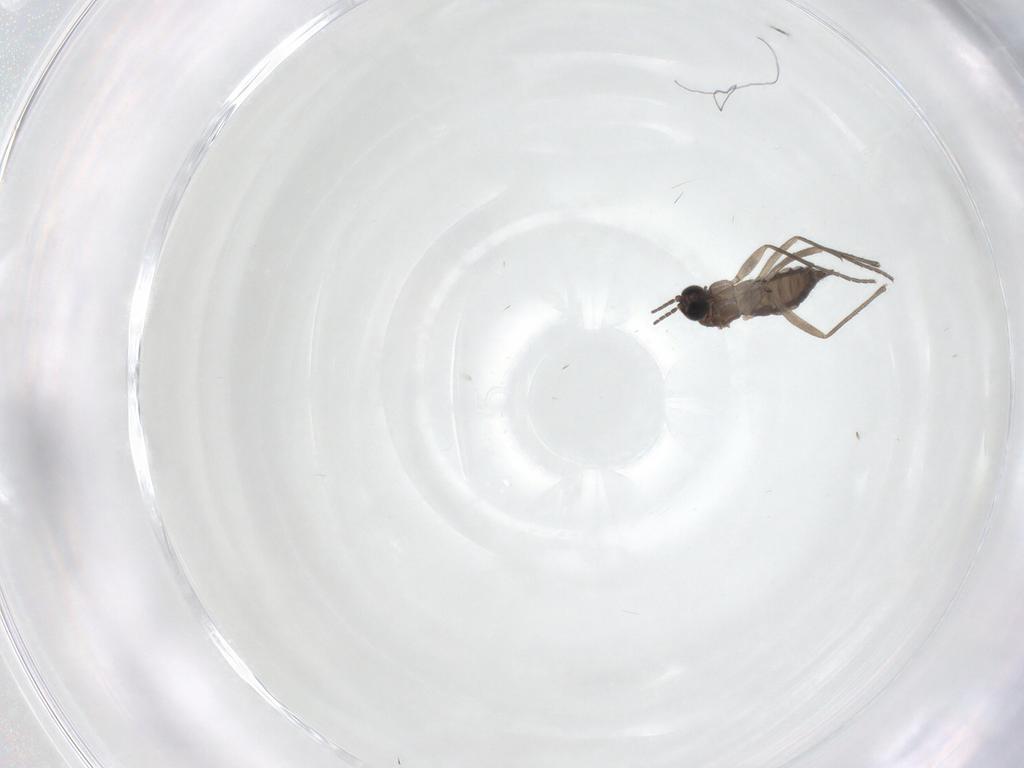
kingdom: Animalia
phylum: Arthropoda
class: Insecta
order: Diptera
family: Sciaridae
